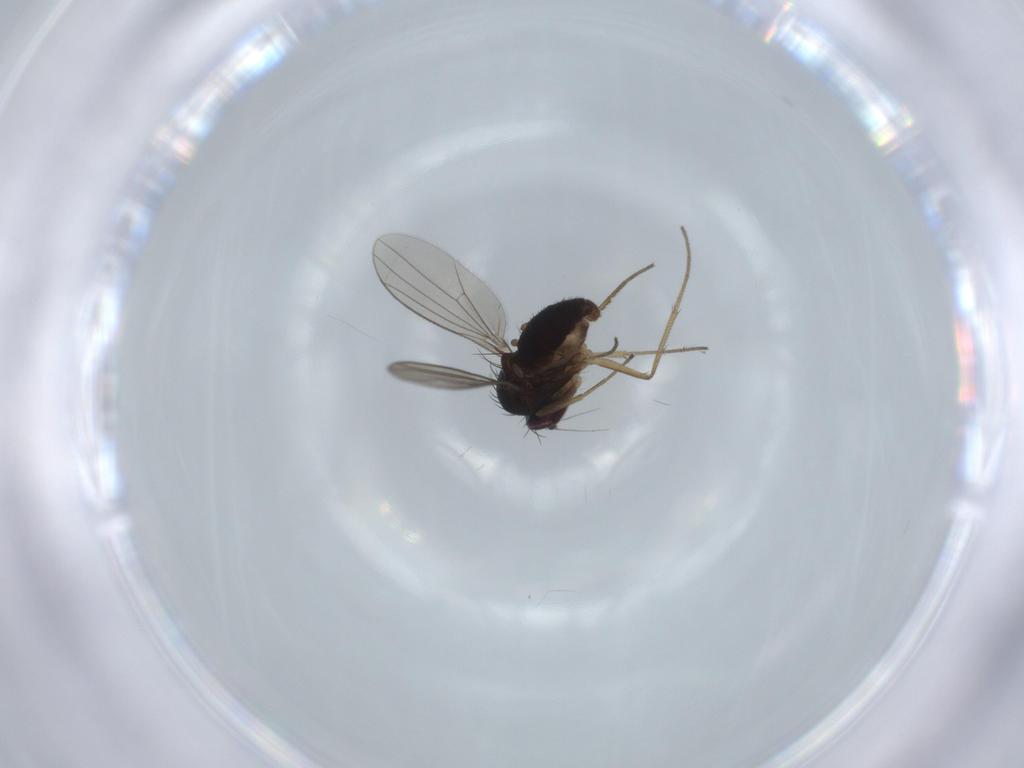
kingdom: Animalia
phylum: Arthropoda
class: Insecta
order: Diptera
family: Dolichopodidae
